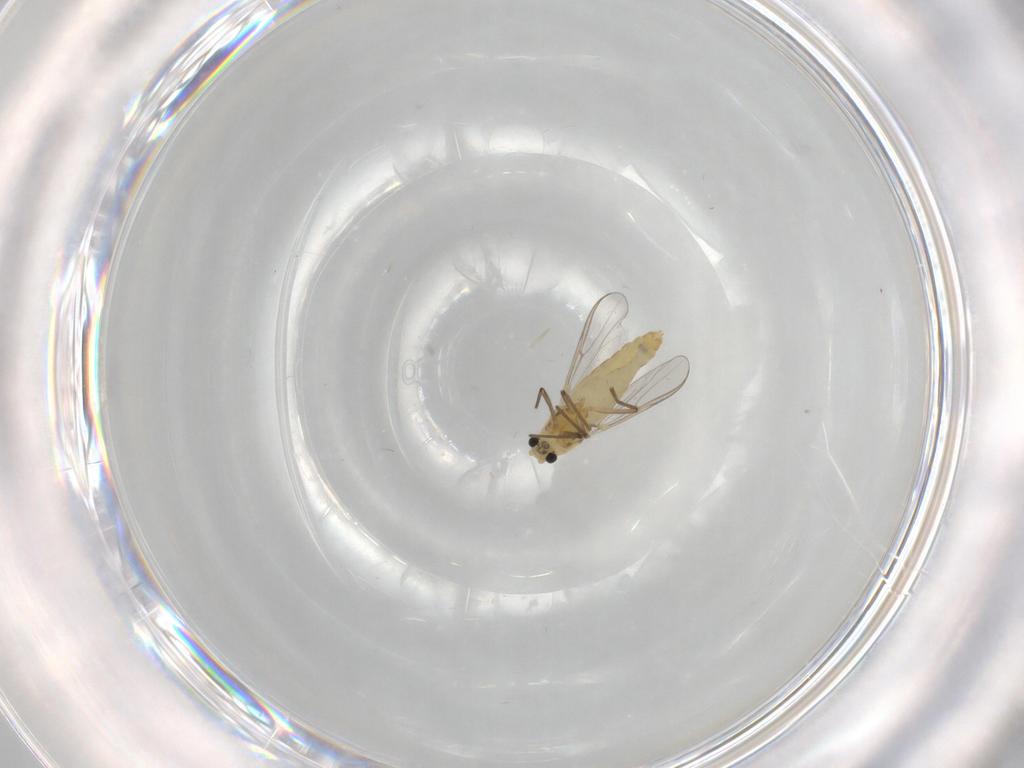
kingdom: Animalia
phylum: Arthropoda
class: Insecta
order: Diptera
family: Chironomidae
